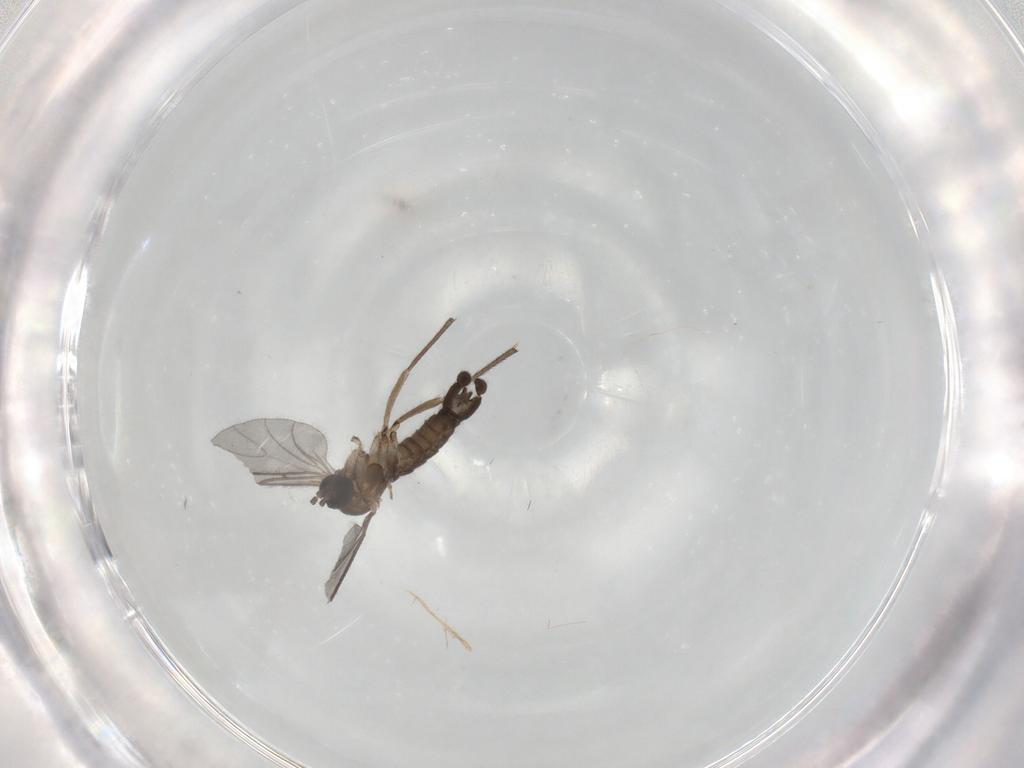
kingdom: Animalia
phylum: Arthropoda
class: Insecta
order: Diptera
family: Sciaridae
